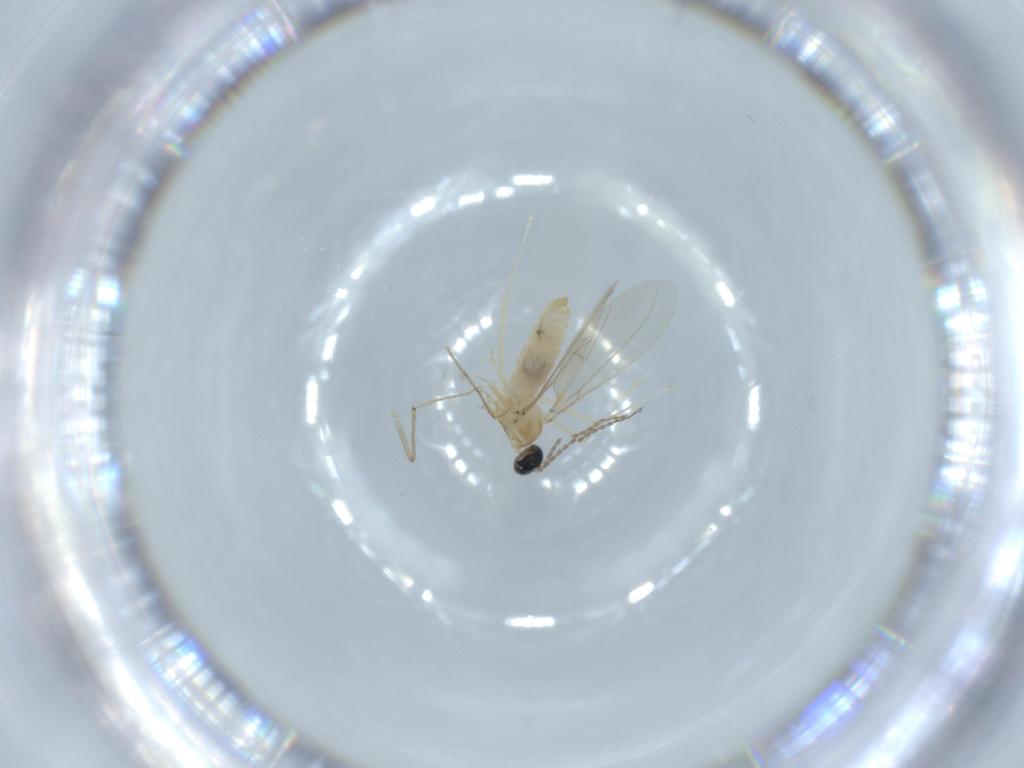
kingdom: Animalia
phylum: Arthropoda
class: Insecta
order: Diptera
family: Cecidomyiidae
